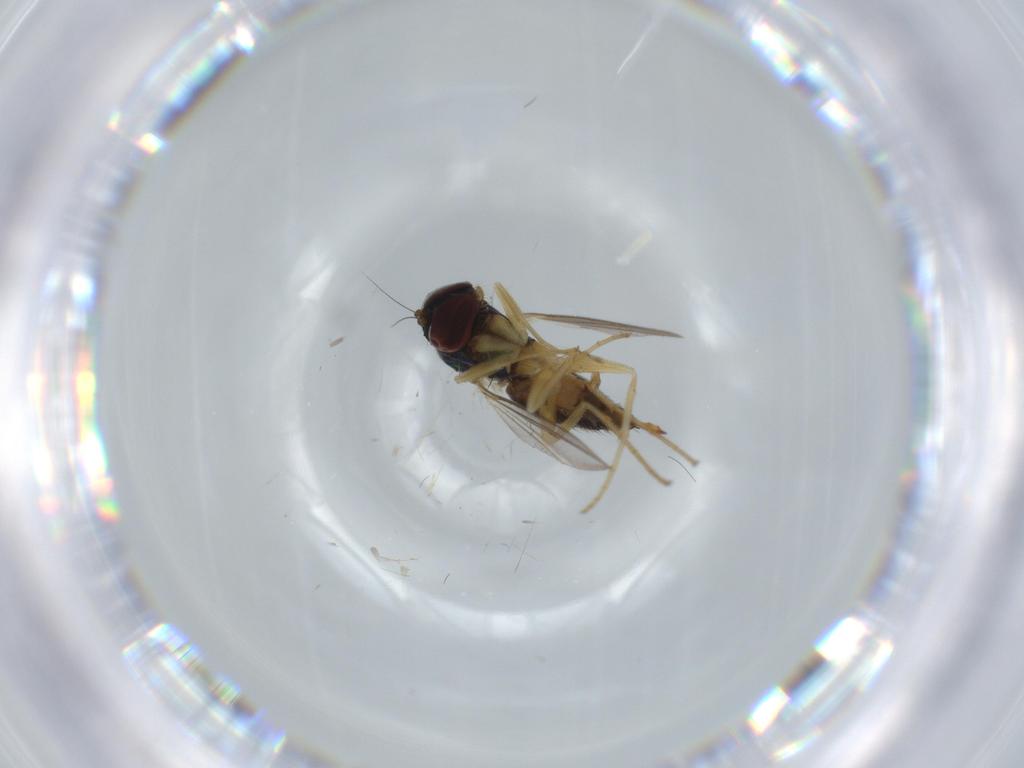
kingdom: Animalia
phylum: Arthropoda
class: Insecta
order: Diptera
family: Dolichopodidae
